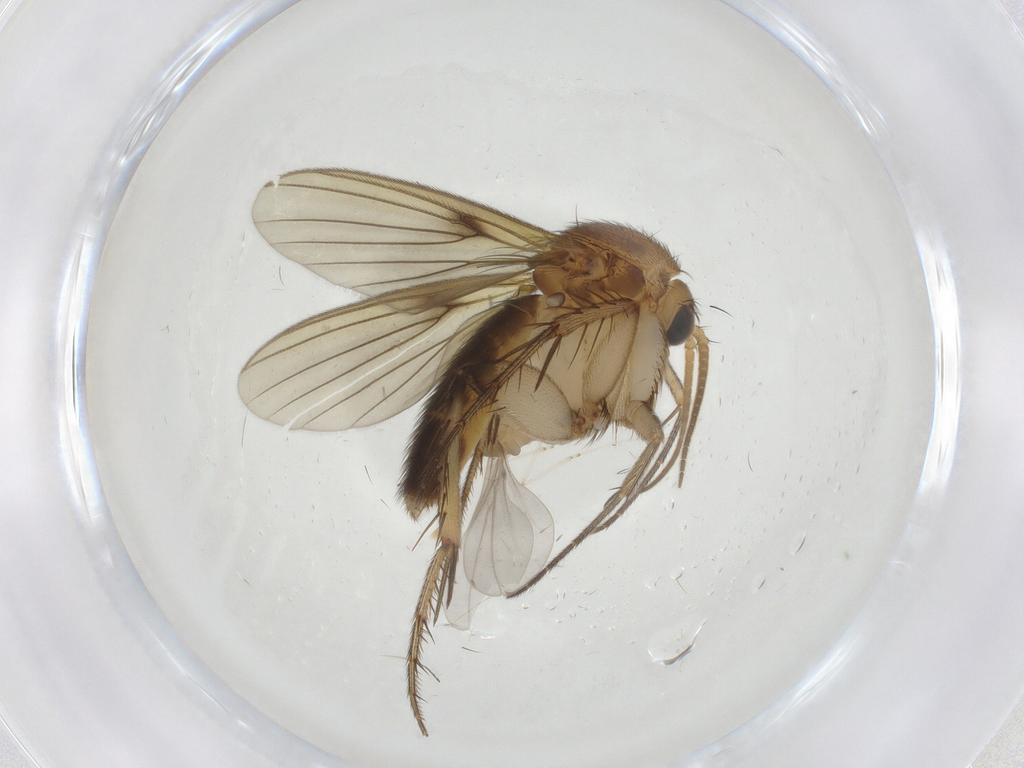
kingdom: Animalia
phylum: Arthropoda
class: Insecta
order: Diptera
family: Mycetophilidae
